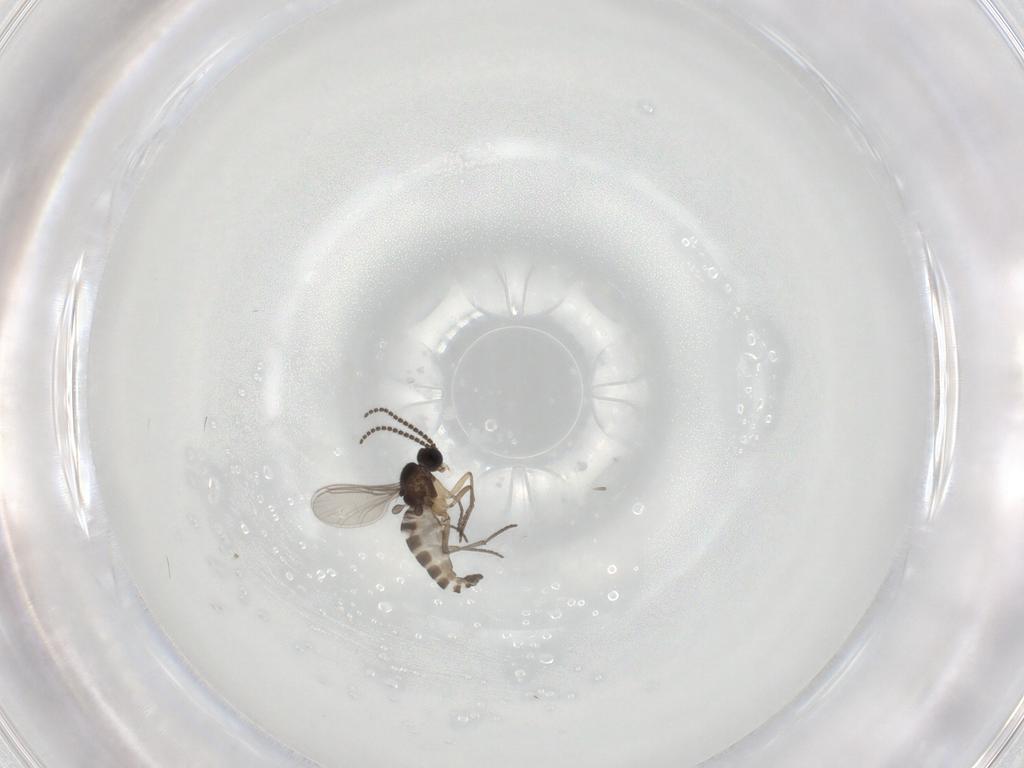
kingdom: Animalia
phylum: Arthropoda
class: Insecta
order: Diptera
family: Sciaridae
